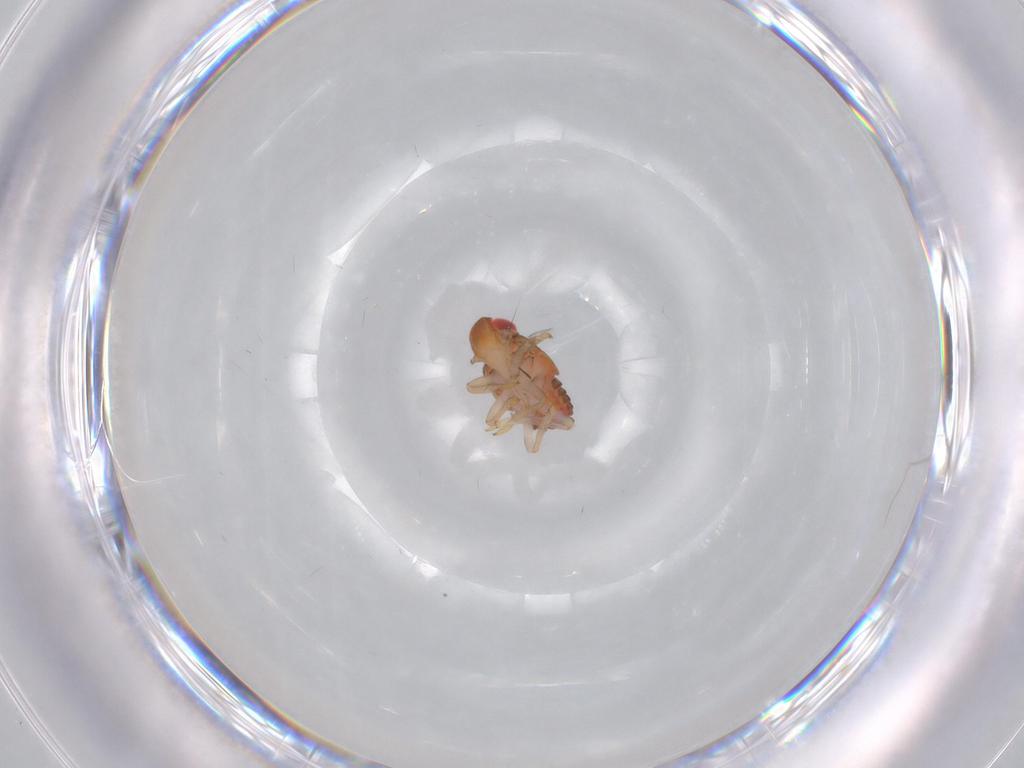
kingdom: Animalia
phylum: Arthropoda
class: Insecta
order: Hemiptera
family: Issidae
